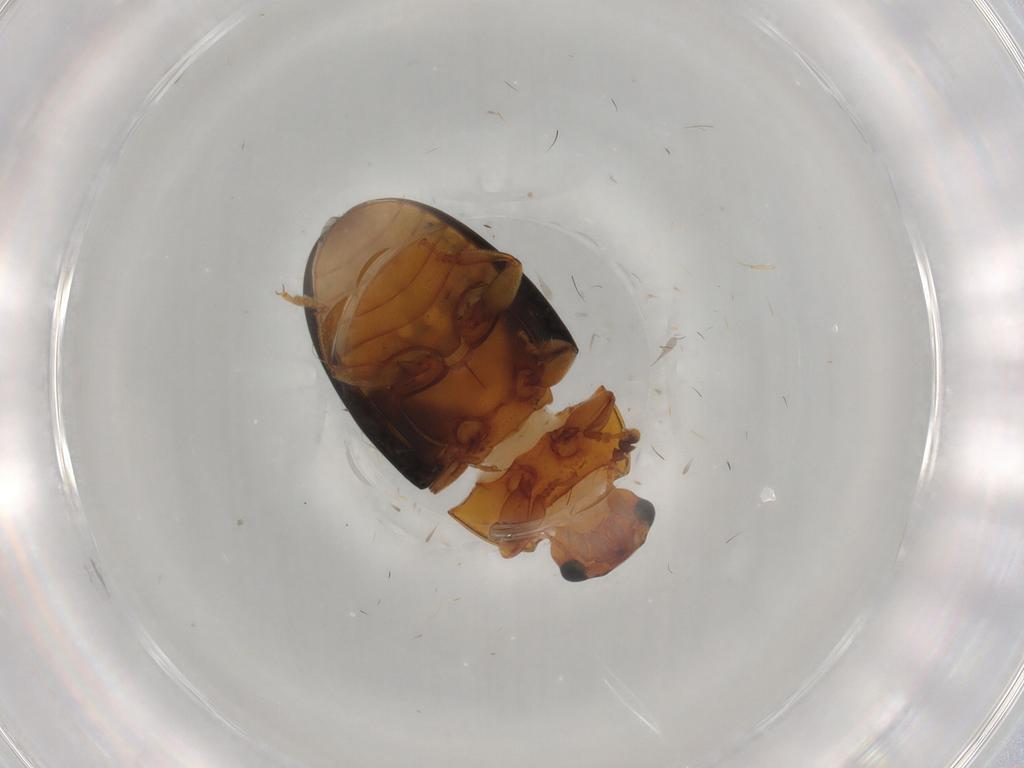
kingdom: Animalia
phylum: Arthropoda
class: Insecta
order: Coleoptera
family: Erotylidae
